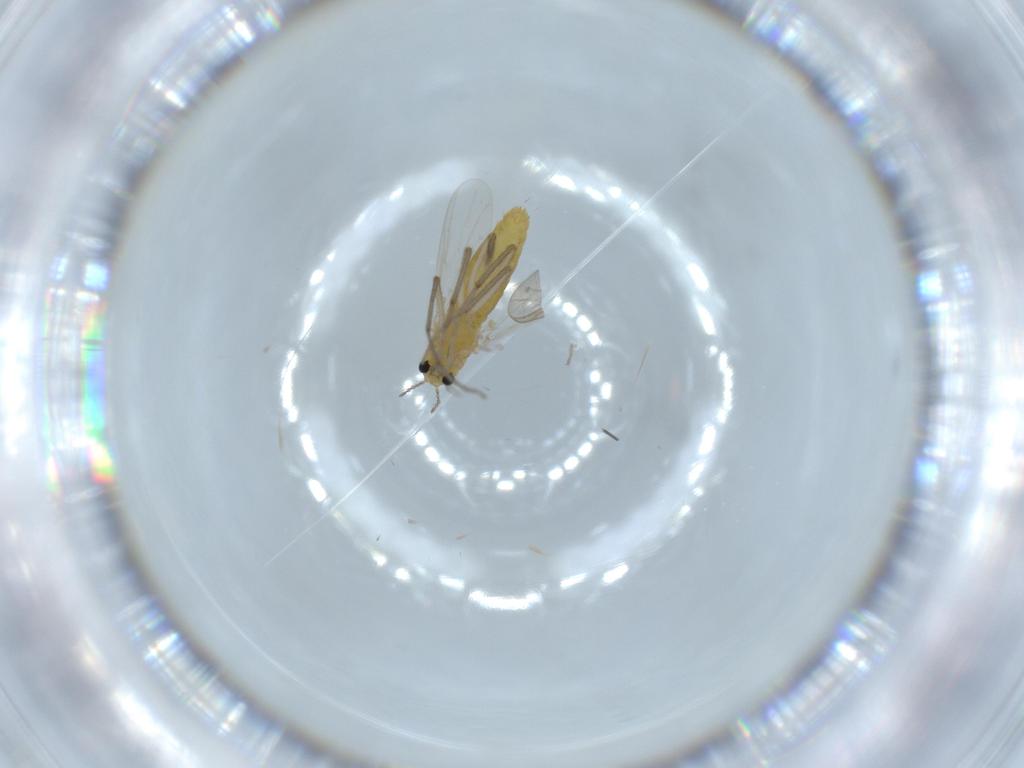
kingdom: Animalia
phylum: Arthropoda
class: Insecta
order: Diptera
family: Chironomidae
